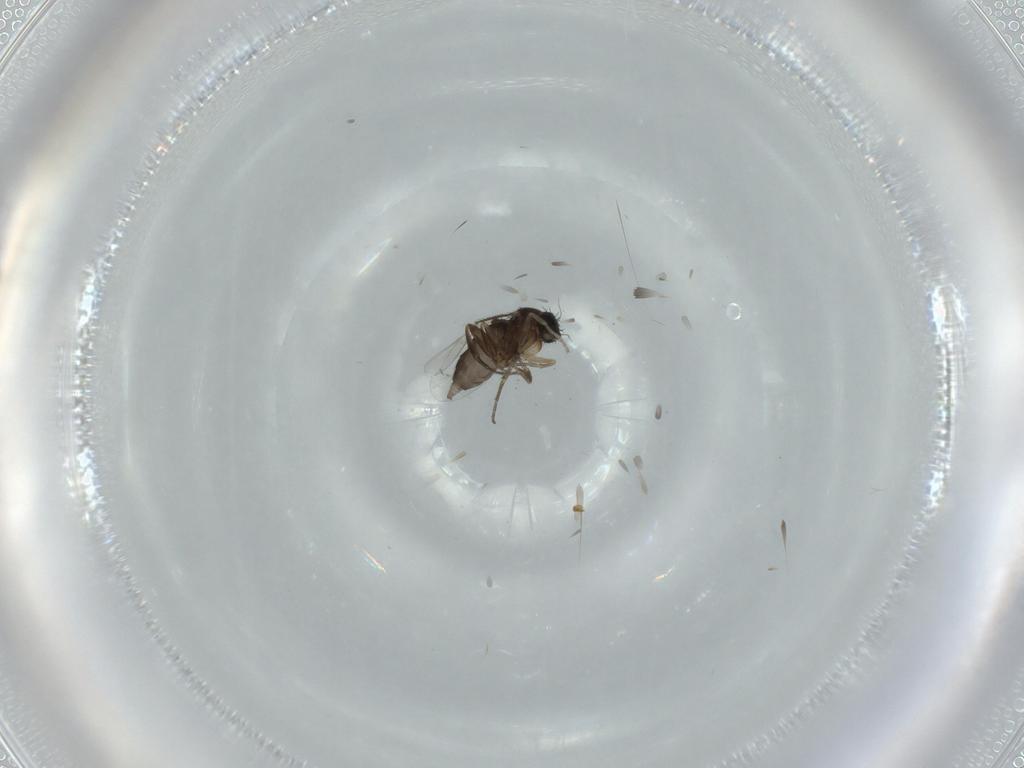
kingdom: Animalia
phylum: Arthropoda
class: Insecta
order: Diptera
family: Phoridae
